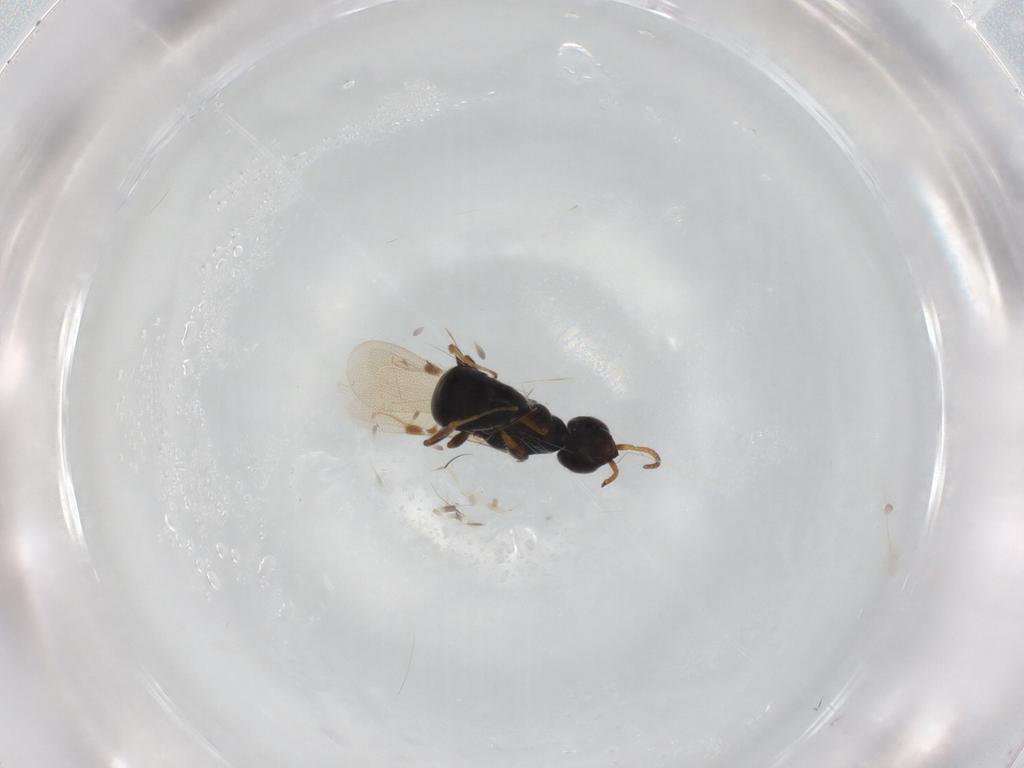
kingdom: Animalia
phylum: Arthropoda
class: Insecta
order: Hymenoptera
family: Bethylidae
